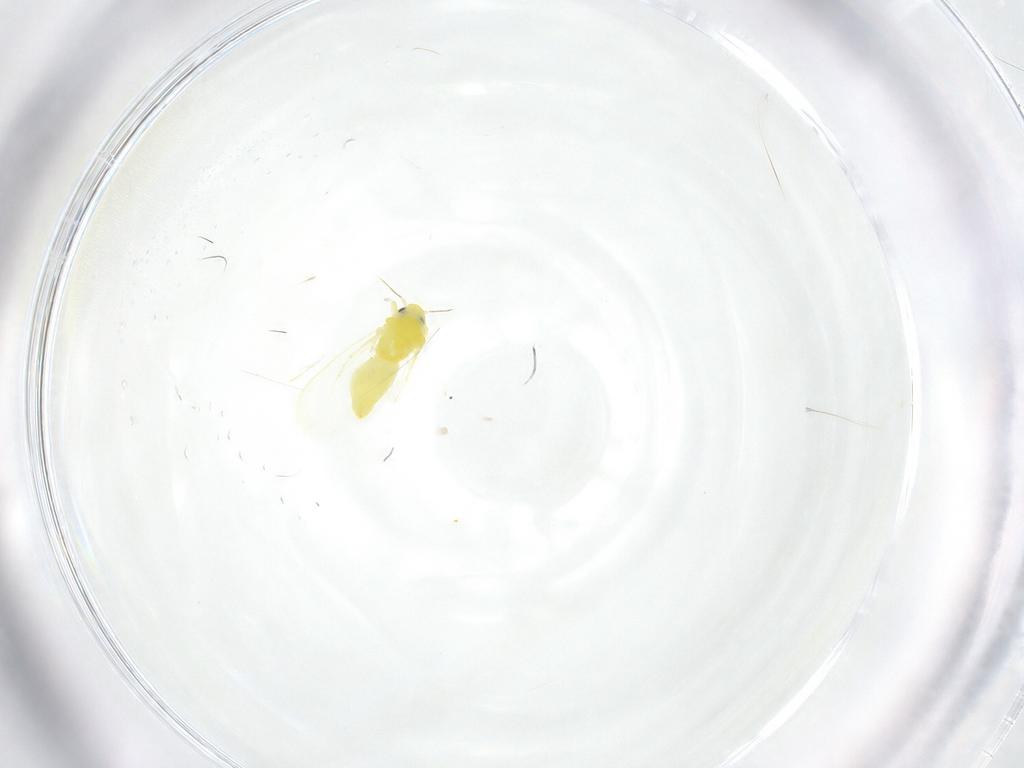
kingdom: Animalia
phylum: Arthropoda
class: Insecta
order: Hemiptera
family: Aleyrodidae
